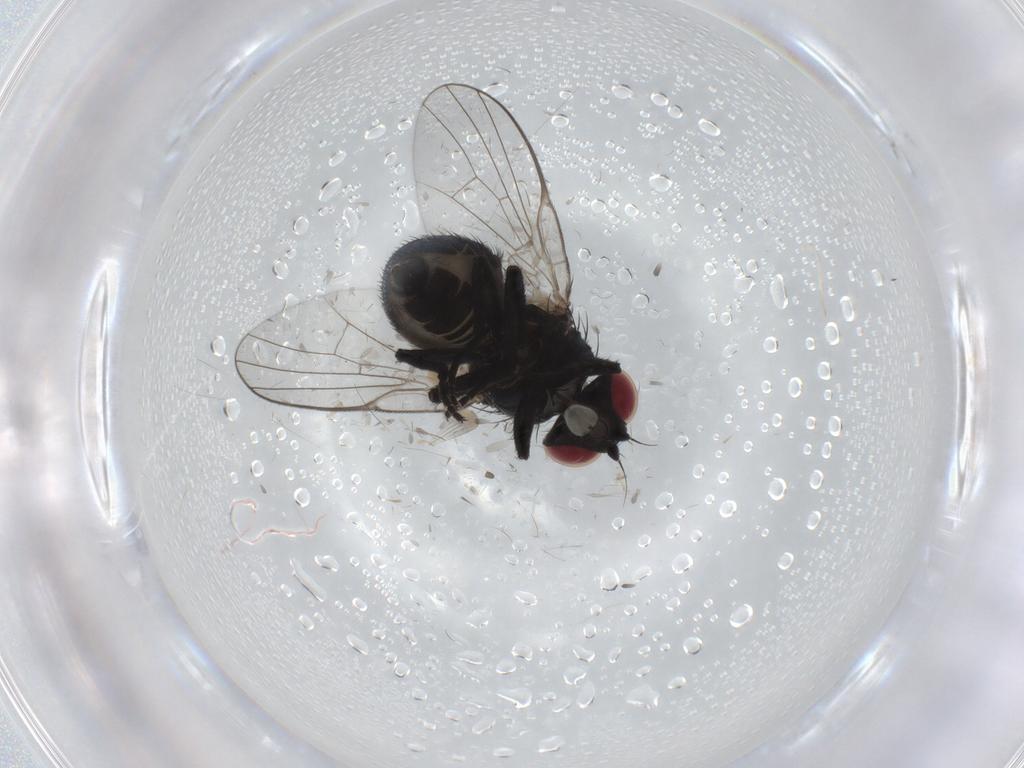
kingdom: Animalia
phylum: Arthropoda
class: Insecta
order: Diptera
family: Agromyzidae
